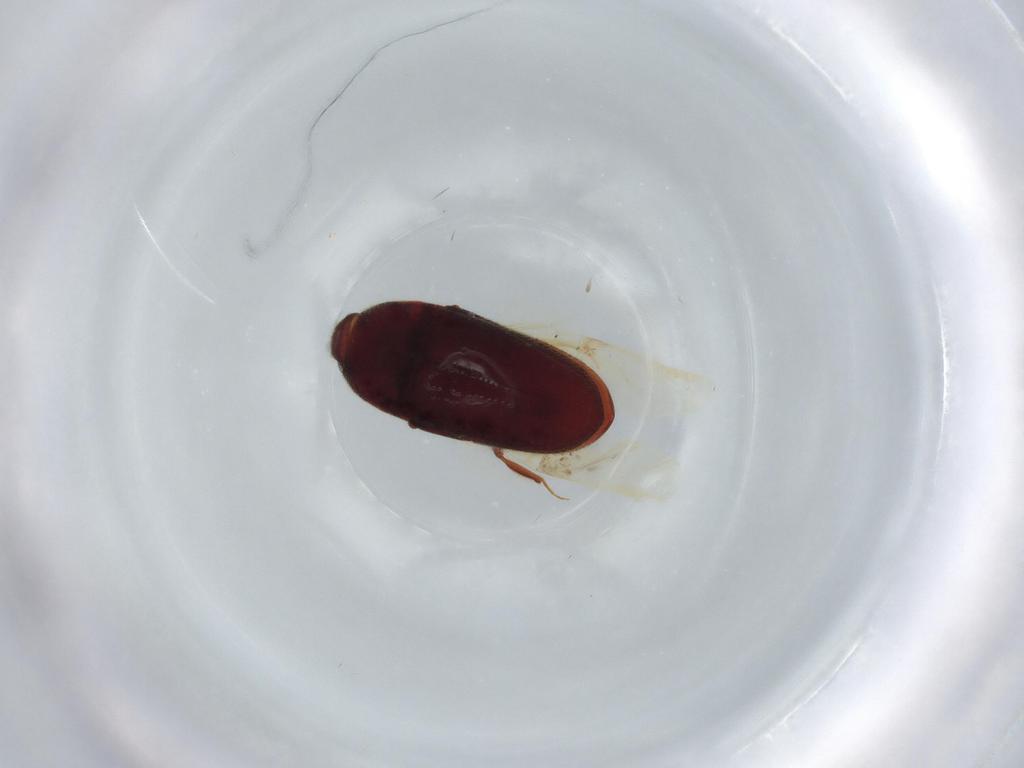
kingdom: Animalia
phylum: Arthropoda
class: Insecta
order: Coleoptera
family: Throscidae
